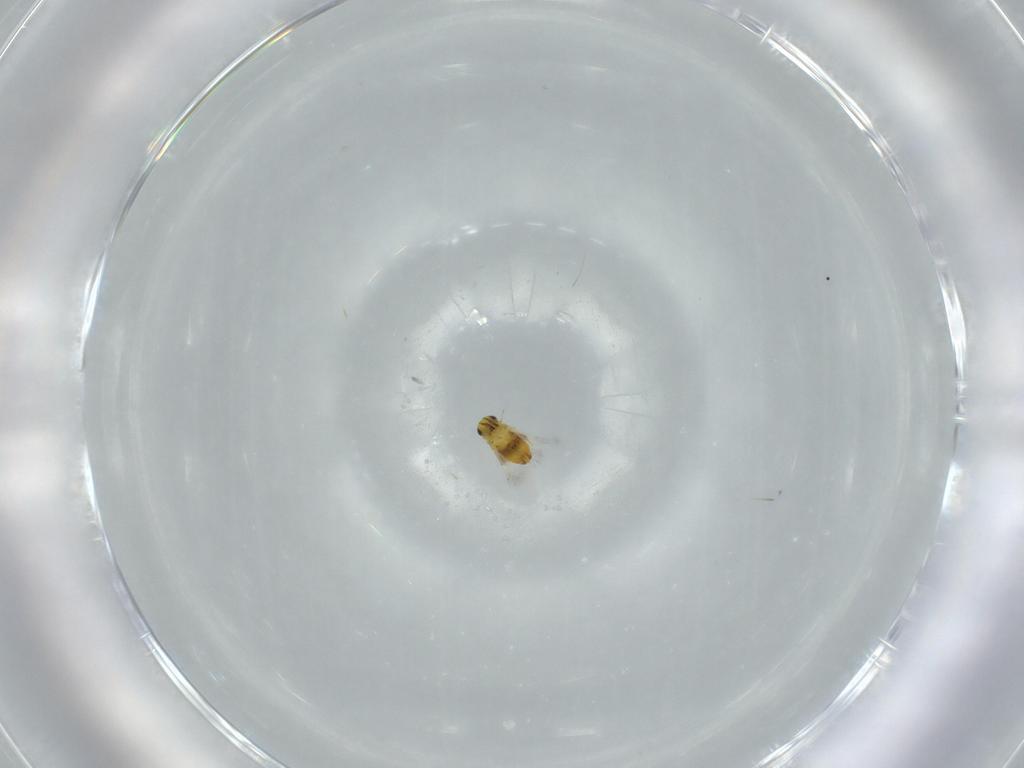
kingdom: Animalia
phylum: Arthropoda
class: Insecta
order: Hymenoptera
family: Signiphoridae
